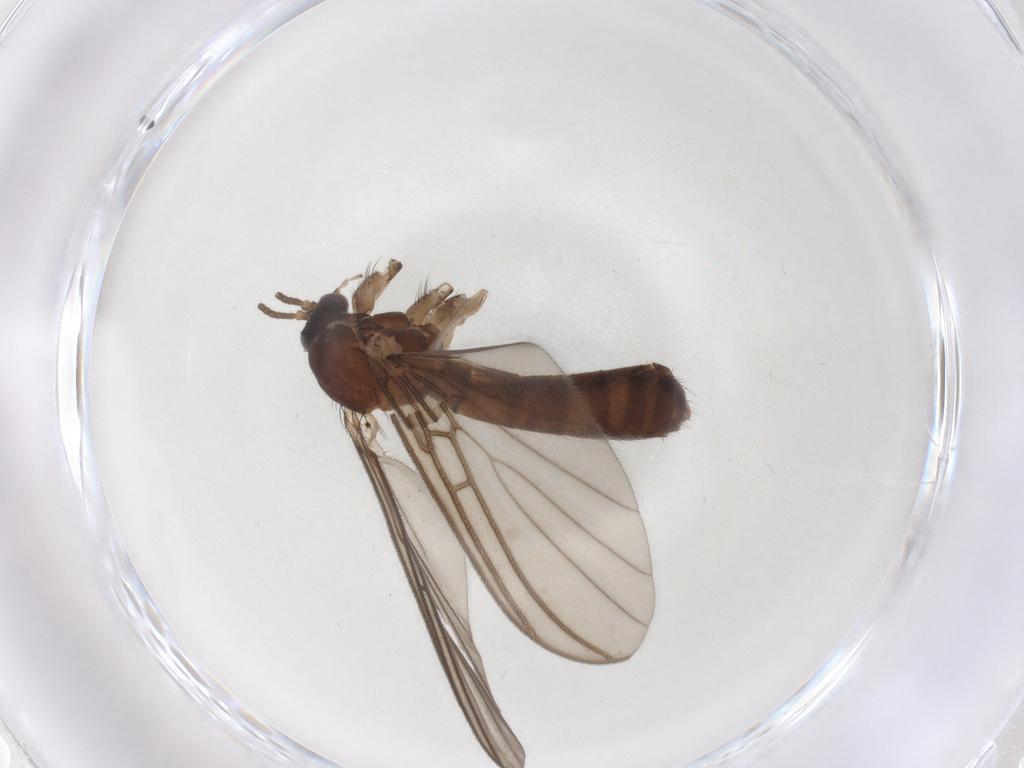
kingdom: Animalia
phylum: Arthropoda
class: Insecta
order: Diptera
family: Mycetophilidae
